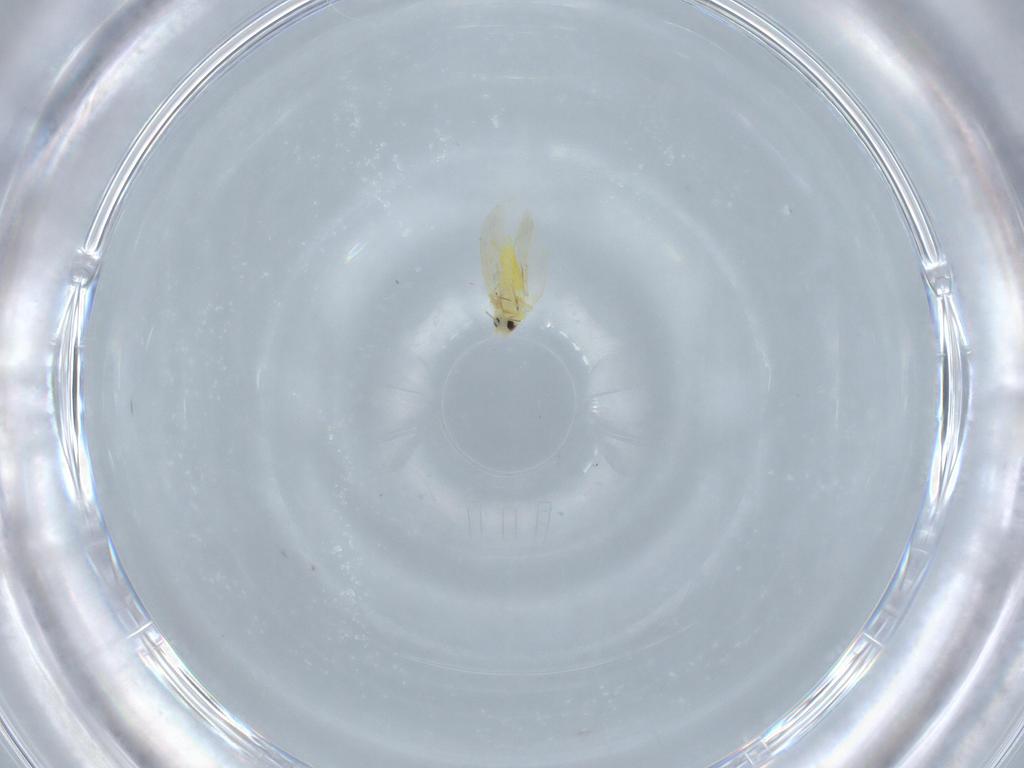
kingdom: Animalia
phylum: Arthropoda
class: Insecta
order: Hemiptera
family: Aleyrodidae
